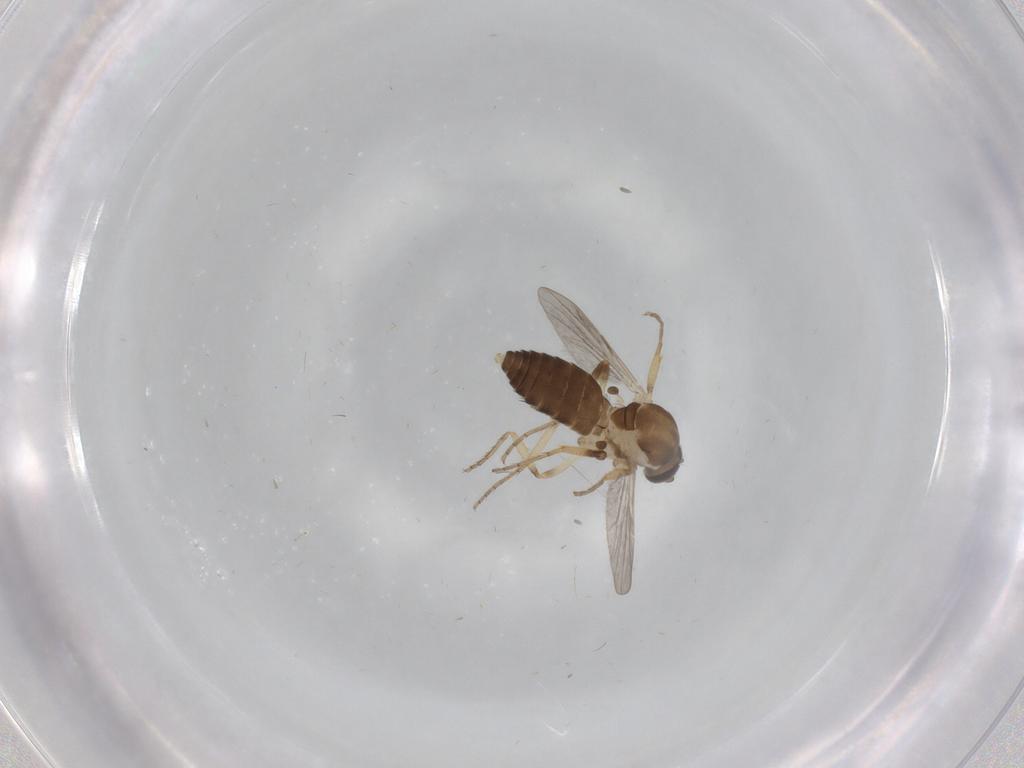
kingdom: Animalia
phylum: Arthropoda
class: Insecta
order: Diptera
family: Ceratopogonidae
